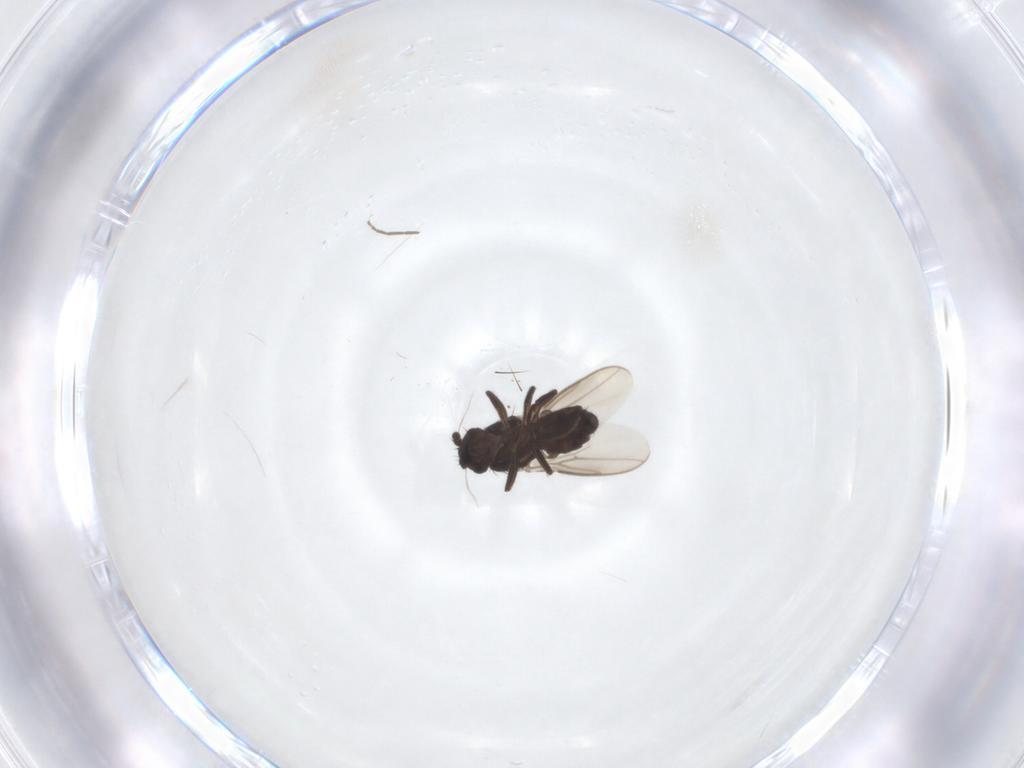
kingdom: Animalia
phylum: Arthropoda
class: Insecta
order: Diptera
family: Sphaeroceridae
